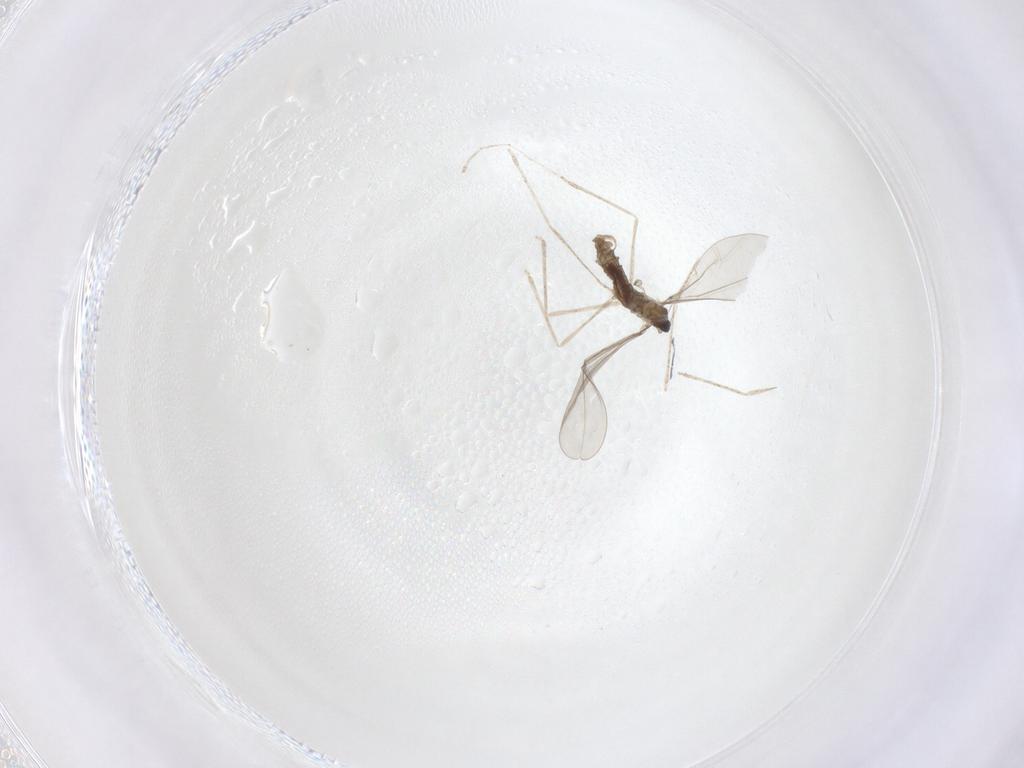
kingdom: Animalia
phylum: Arthropoda
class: Insecta
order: Diptera
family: Cecidomyiidae
